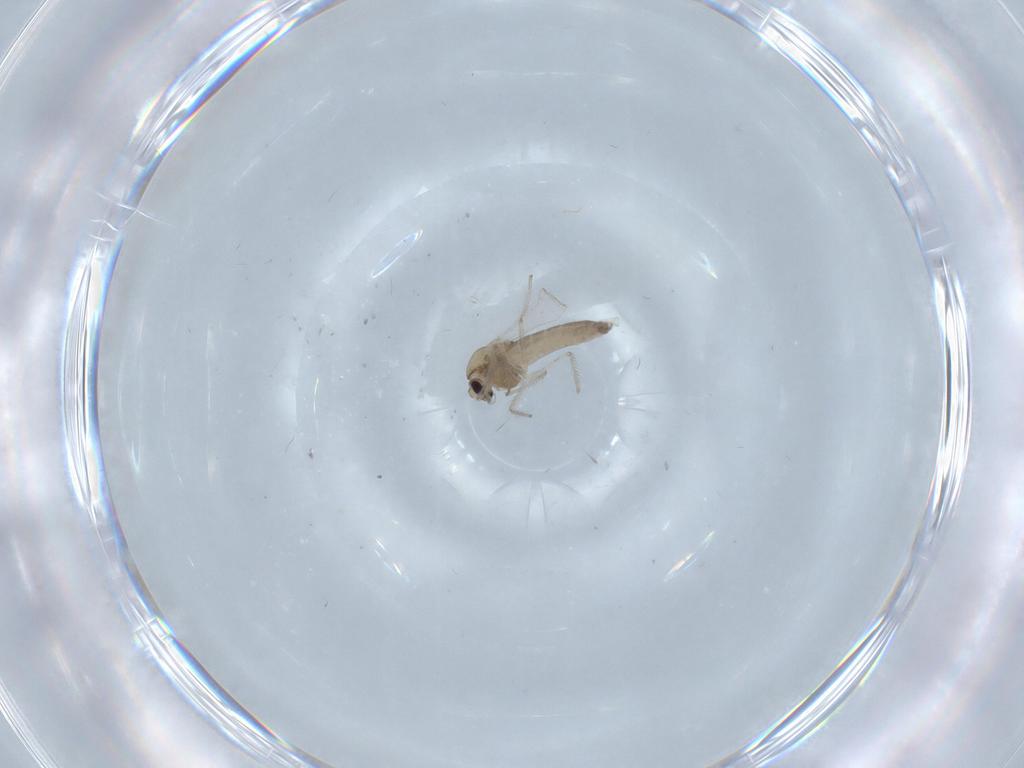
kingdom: Animalia
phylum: Arthropoda
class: Insecta
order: Diptera
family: Chironomidae
